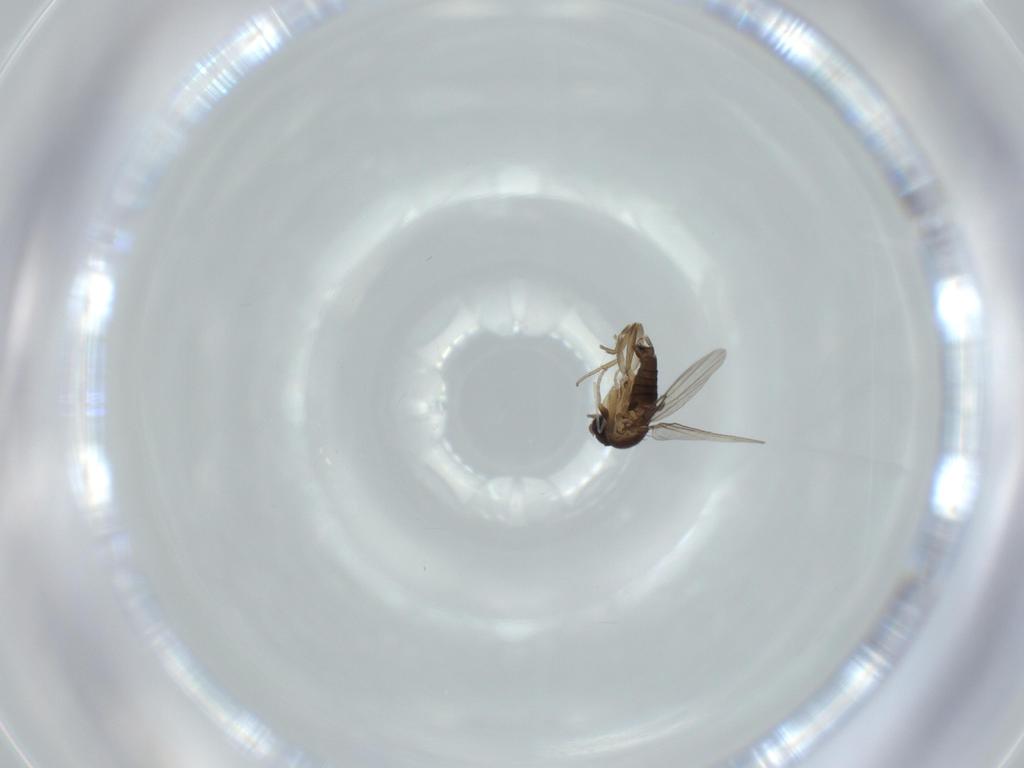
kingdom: Animalia
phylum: Arthropoda
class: Insecta
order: Diptera
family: Phoridae
